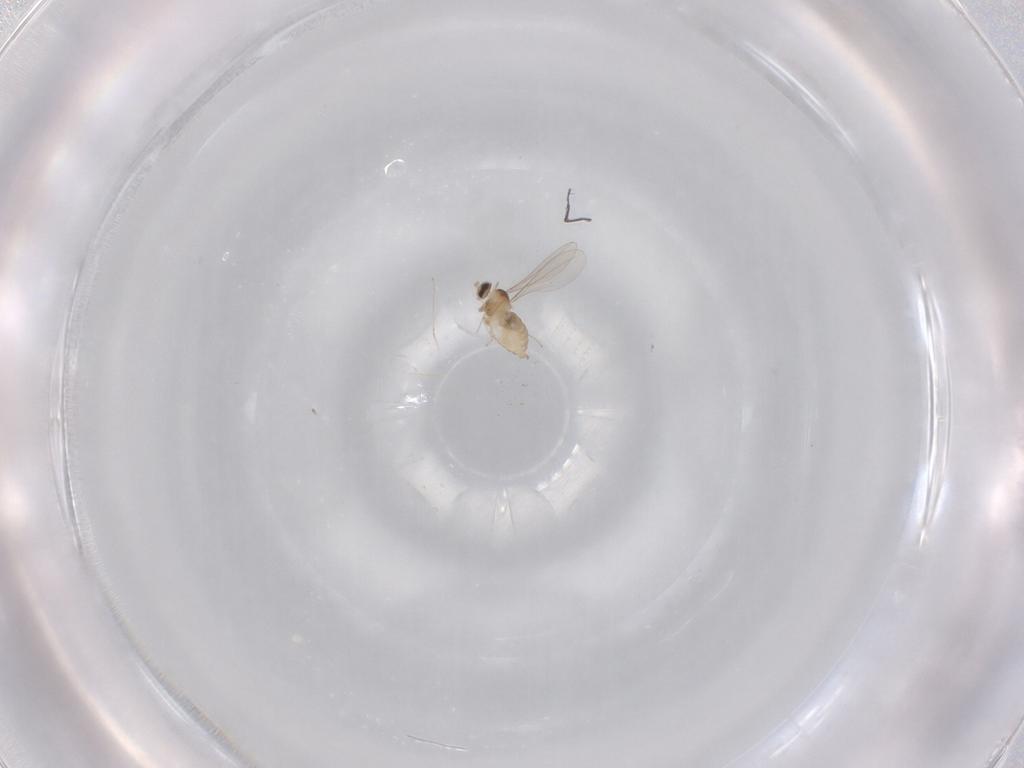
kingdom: Animalia
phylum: Arthropoda
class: Insecta
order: Diptera
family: Cecidomyiidae
